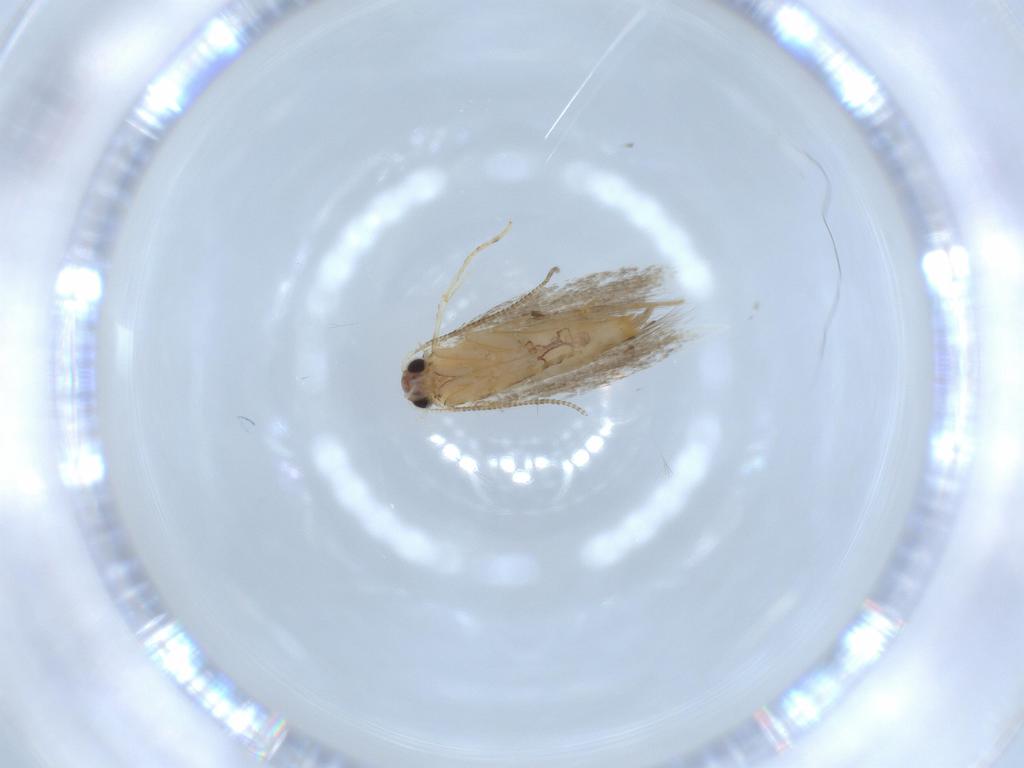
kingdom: Animalia
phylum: Arthropoda
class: Insecta
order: Lepidoptera
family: Tineidae
